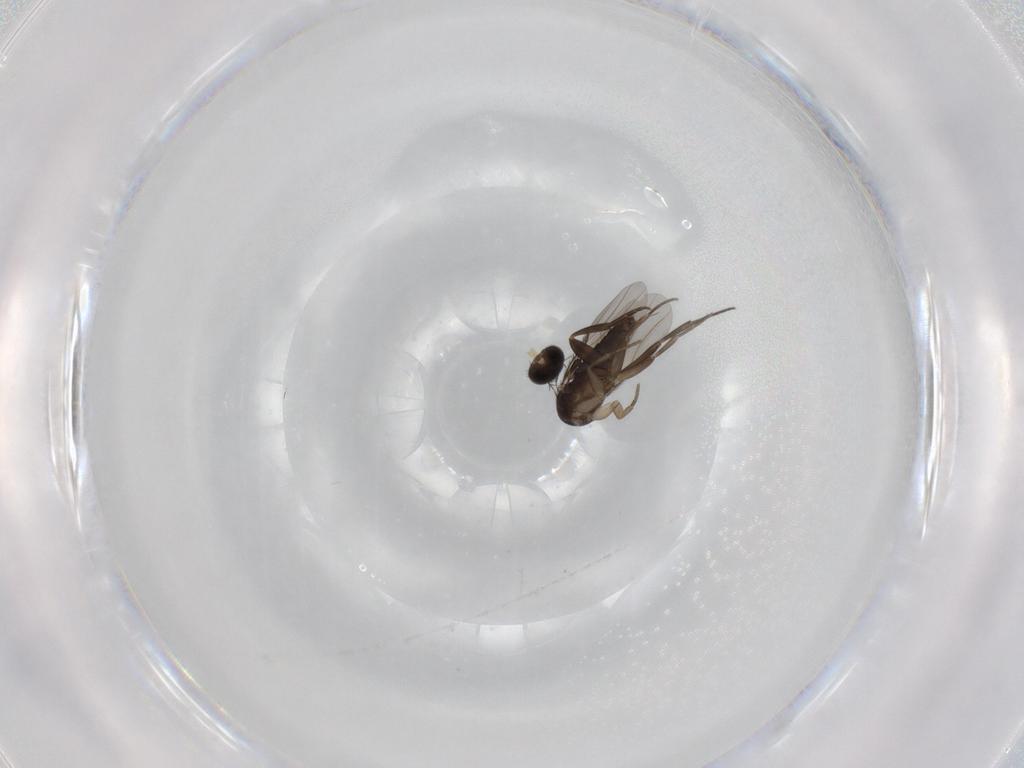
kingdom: Animalia
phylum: Arthropoda
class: Insecta
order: Diptera
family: Phoridae
